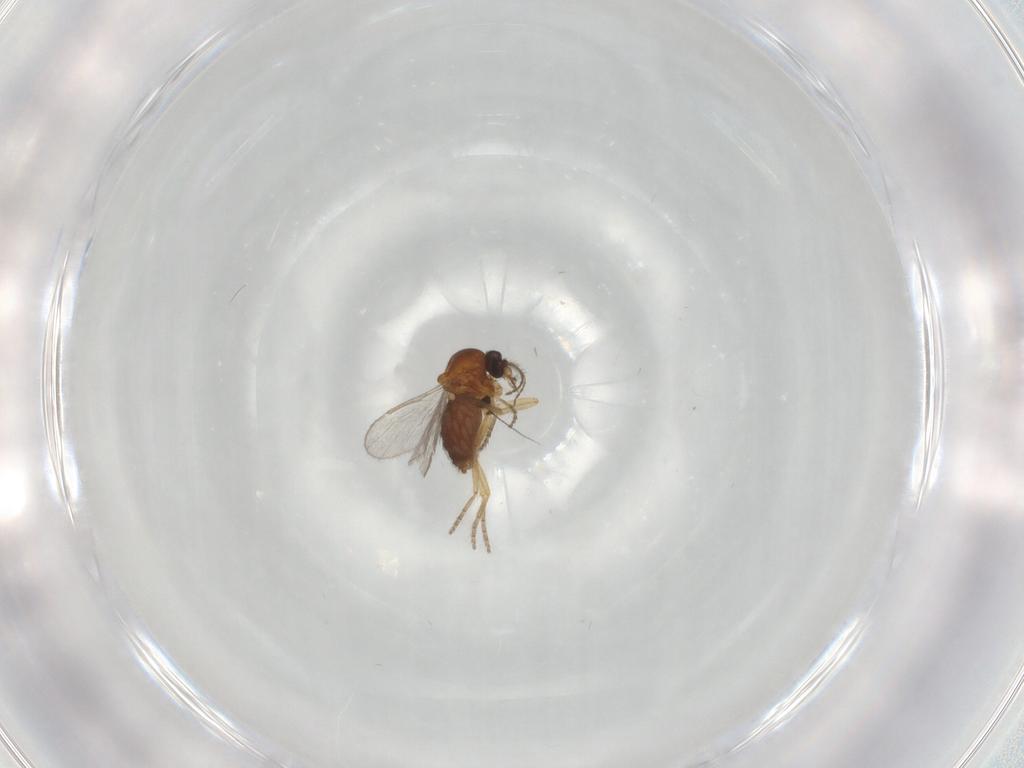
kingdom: Animalia
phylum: Arthropoda
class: Insecta
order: Diptera
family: Ceratopogonidae
